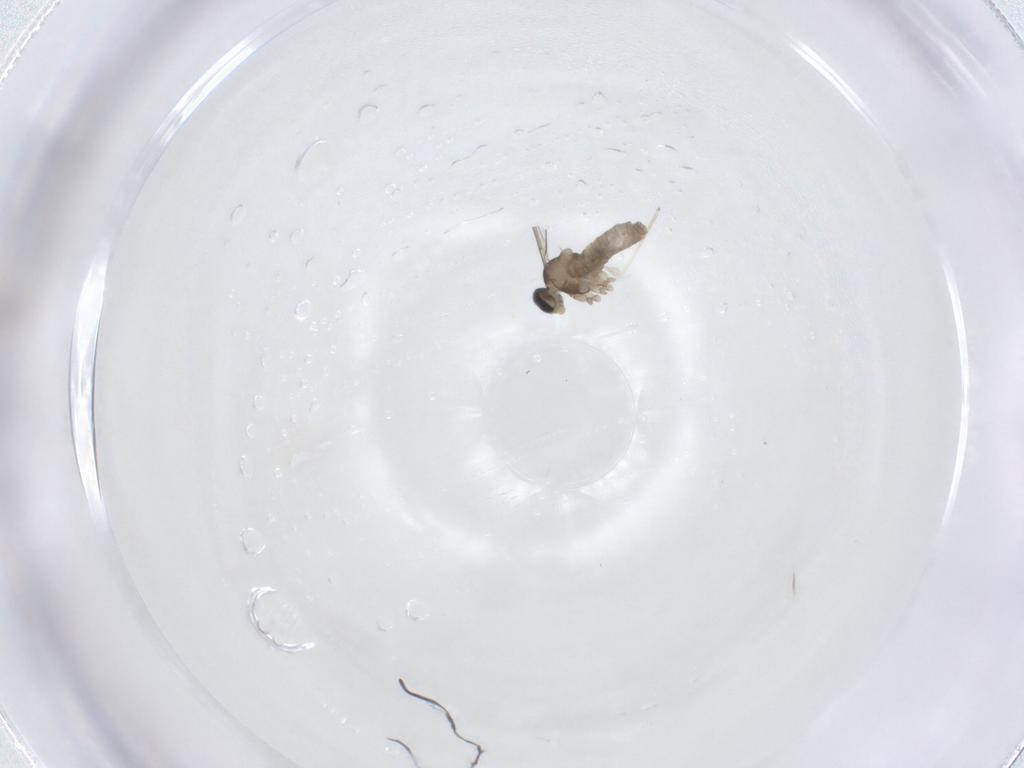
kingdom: Animalia
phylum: Arthropoda
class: Insecta
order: Diptera
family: Cecidomyiidae
